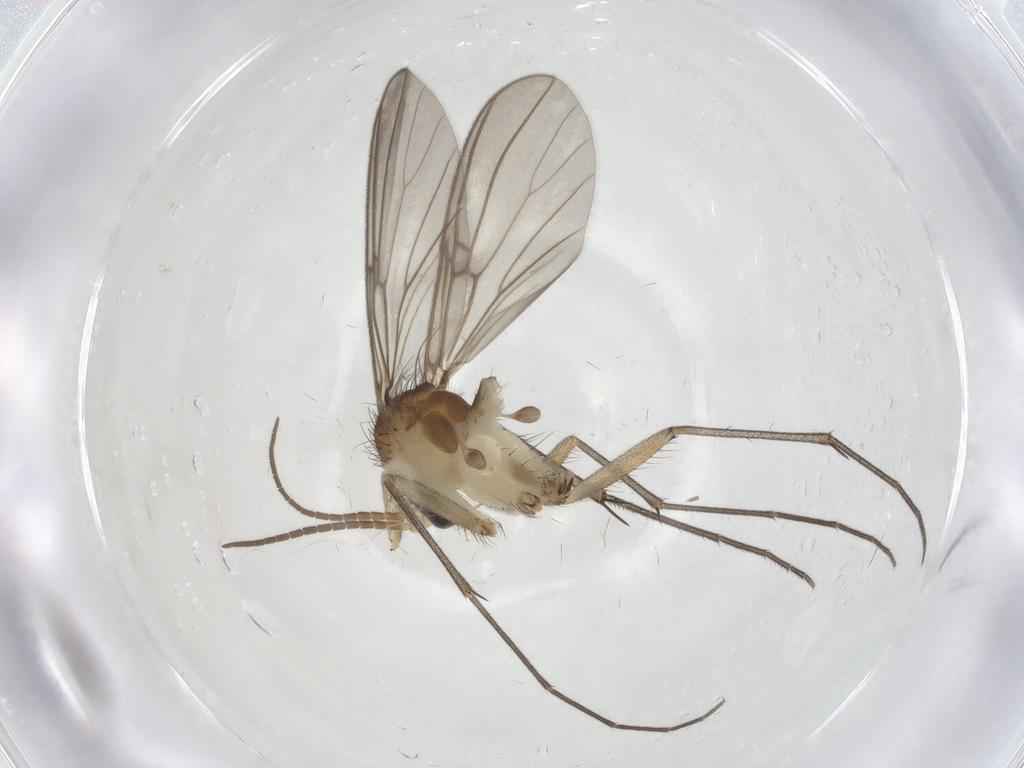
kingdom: Animalia
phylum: Arthropoda
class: Insecta
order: Diptera
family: Mycetophilidae
